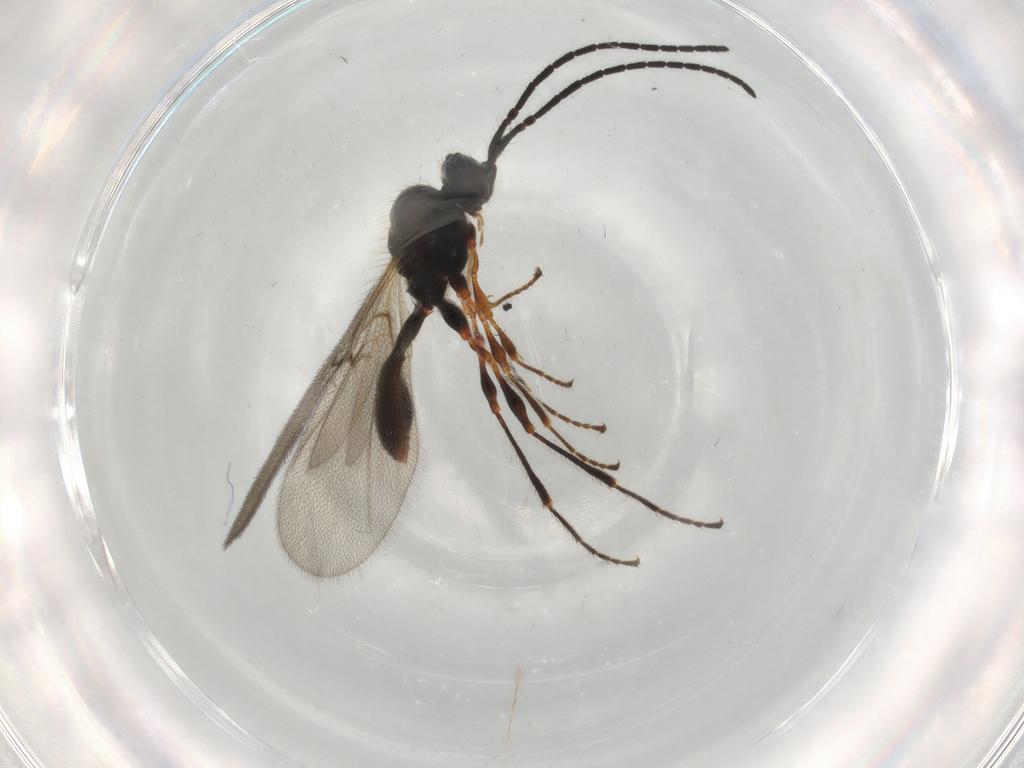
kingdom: Animalia
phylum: Arthropoda
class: Insecta
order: Hymenoptera
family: Diapriidae
